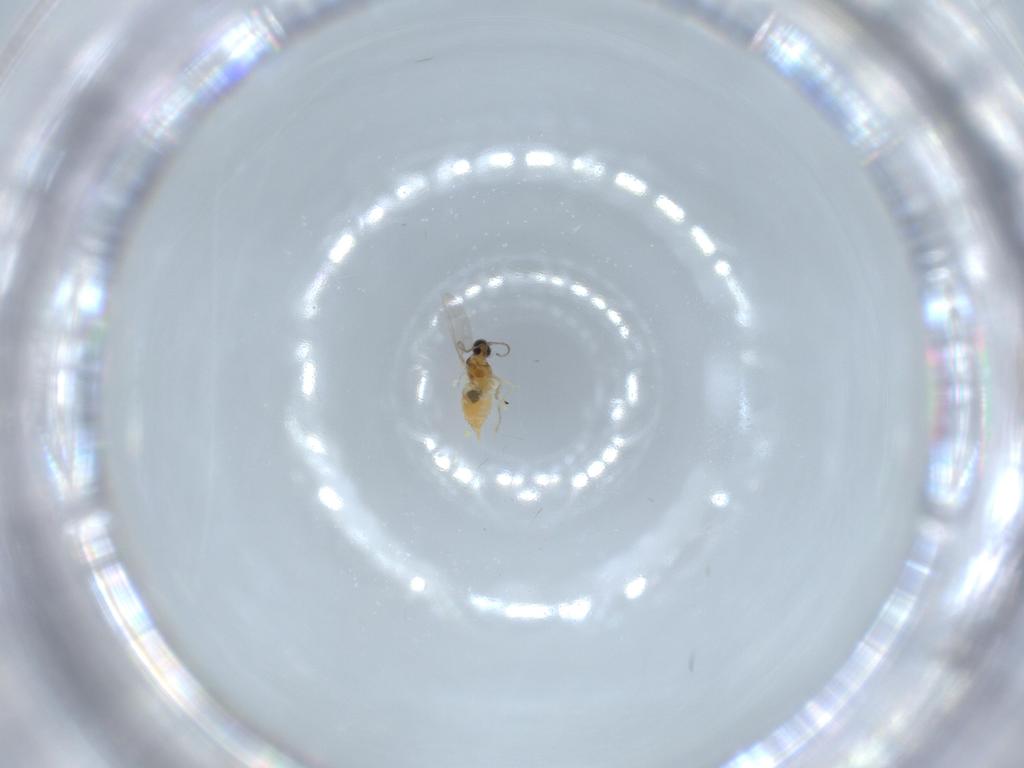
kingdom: Animalia
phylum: Arthropoda
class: Insecta
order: Diptera
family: Cecidomyiidae
